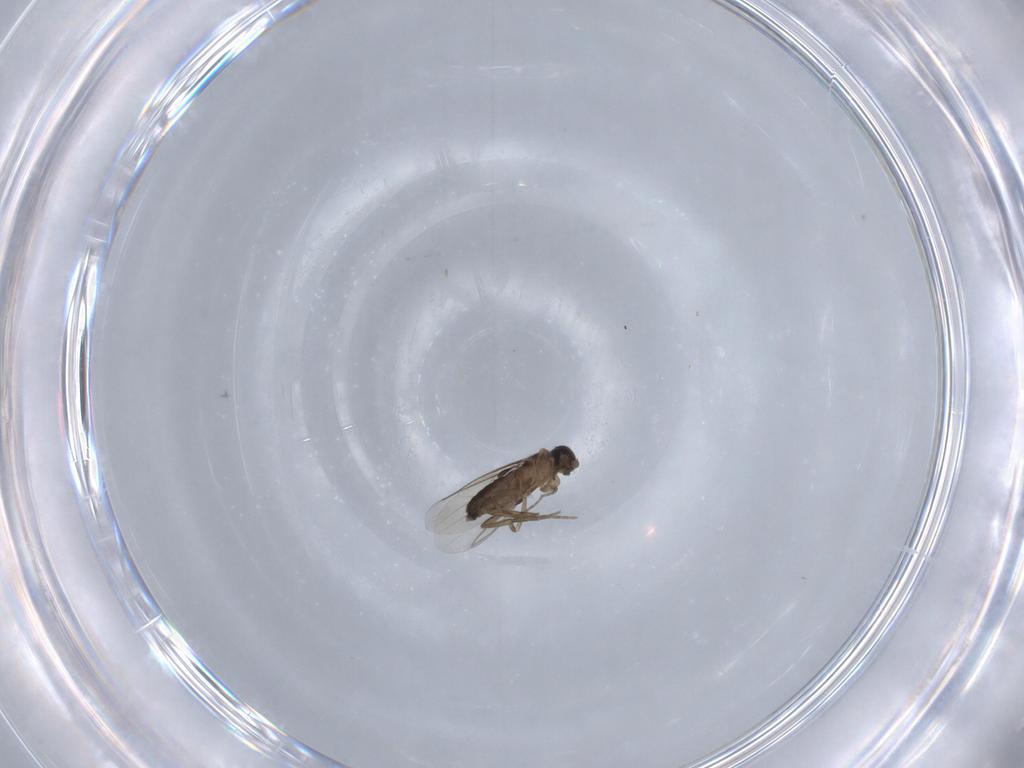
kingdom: Animalia
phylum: Arthropoda
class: Insecta
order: Diptera
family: Phoridae
